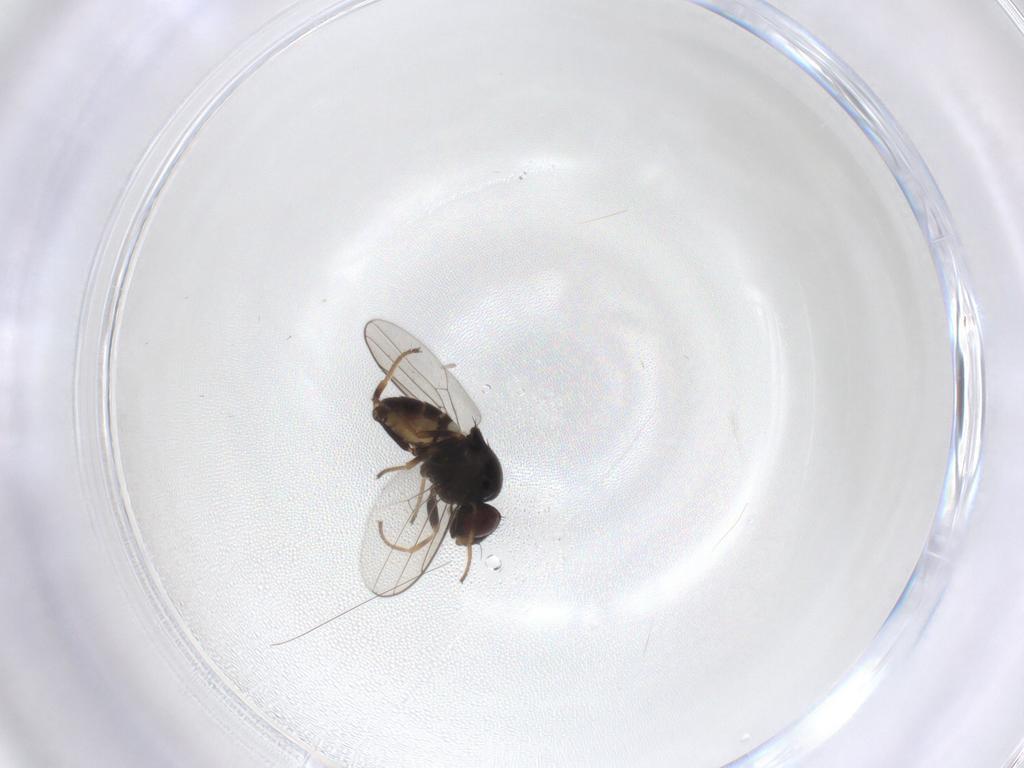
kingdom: Animalia
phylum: Arthropoda
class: Insecta
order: Diptera
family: Chloropidae
